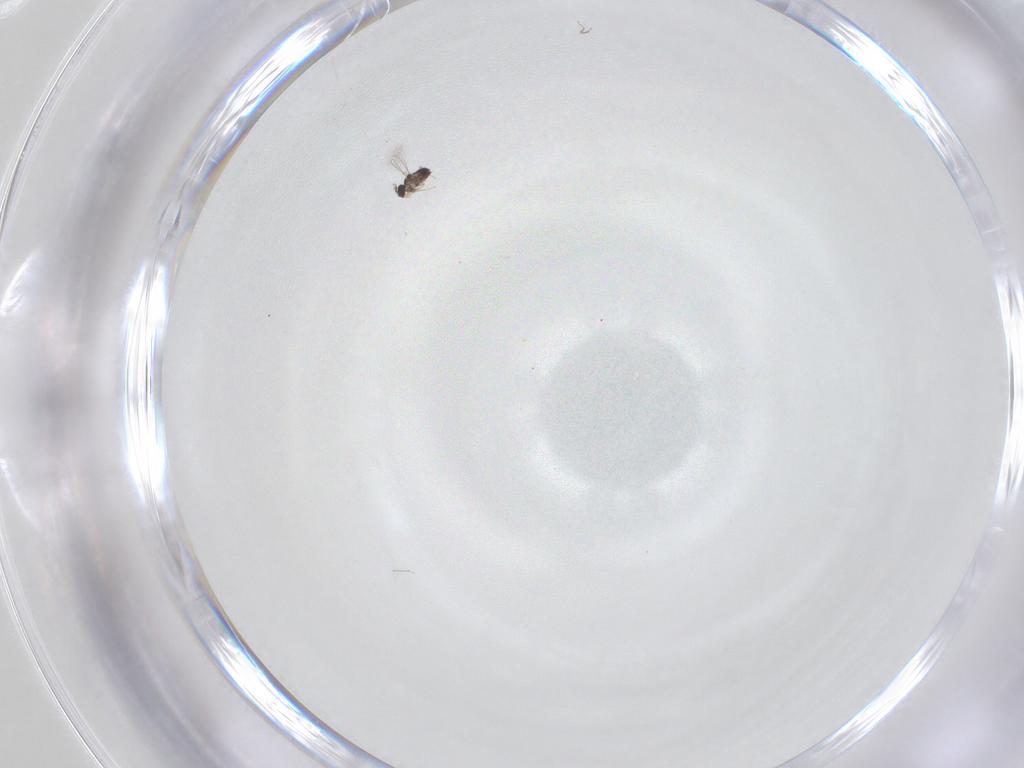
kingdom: Animalia
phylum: Arthropoda
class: Insecta
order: Hymenoptera
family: Mymaridae
